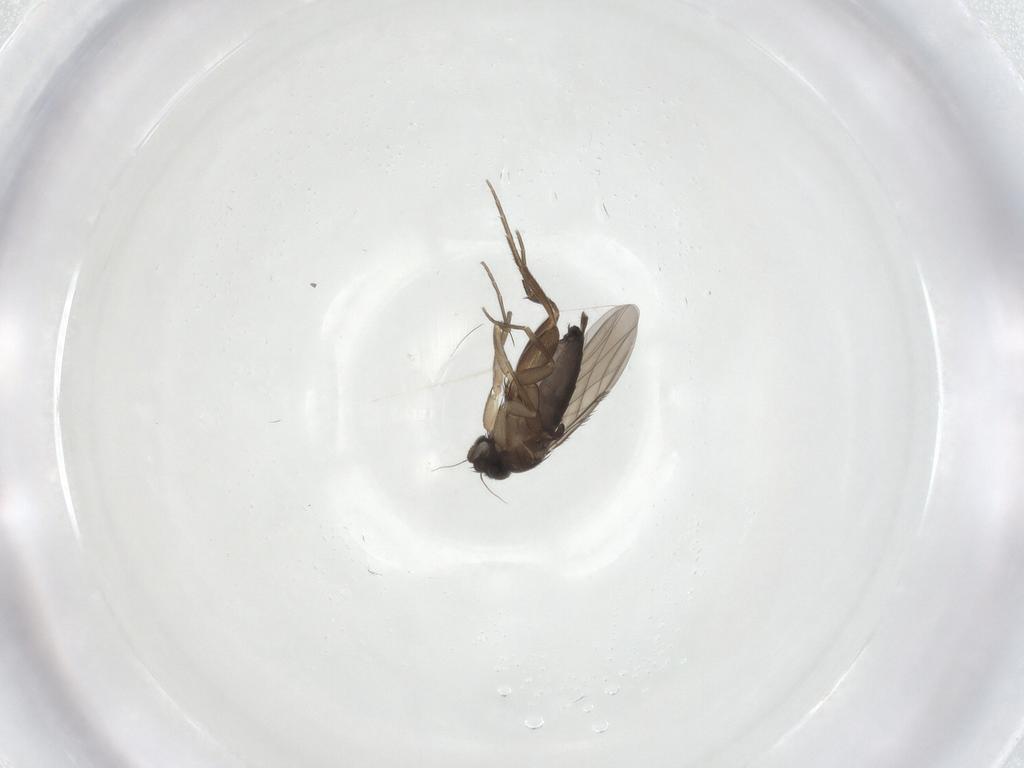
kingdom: Animalia
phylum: Arthropoda
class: Insecta
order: Diptera
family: Phoridae
